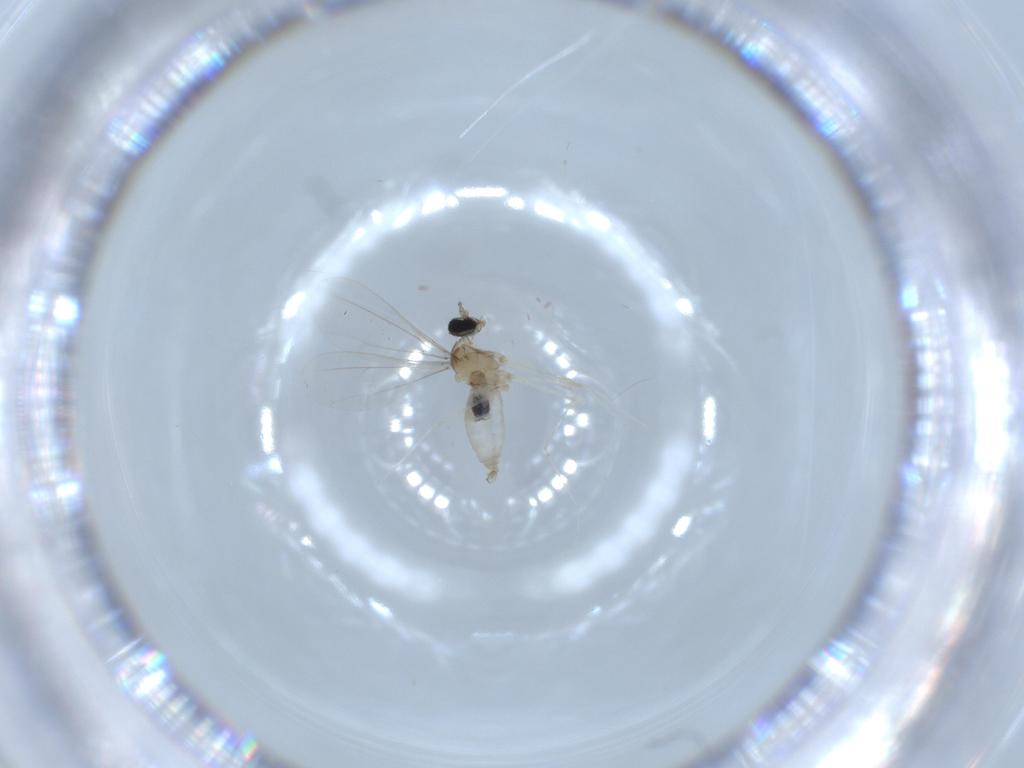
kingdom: Animalia
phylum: Arthropoda
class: Insecta
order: Diptera
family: Cecidomyiidae
